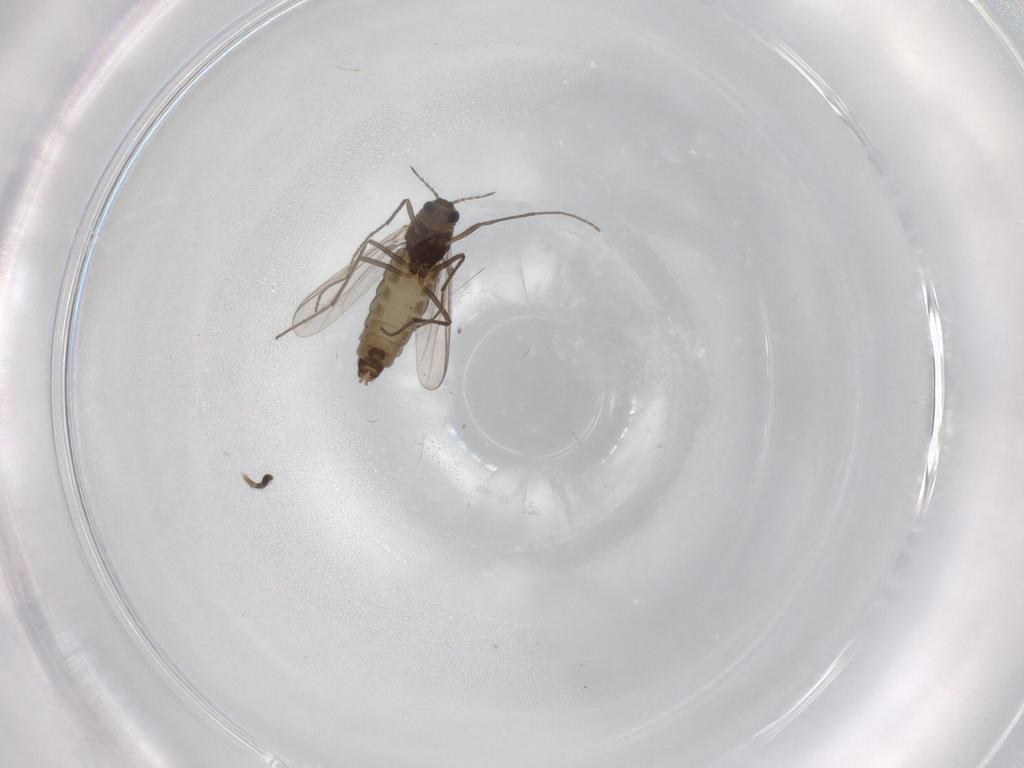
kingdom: Animalia
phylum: Arthropoda
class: Insecta
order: Diptera
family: Chironomidae
